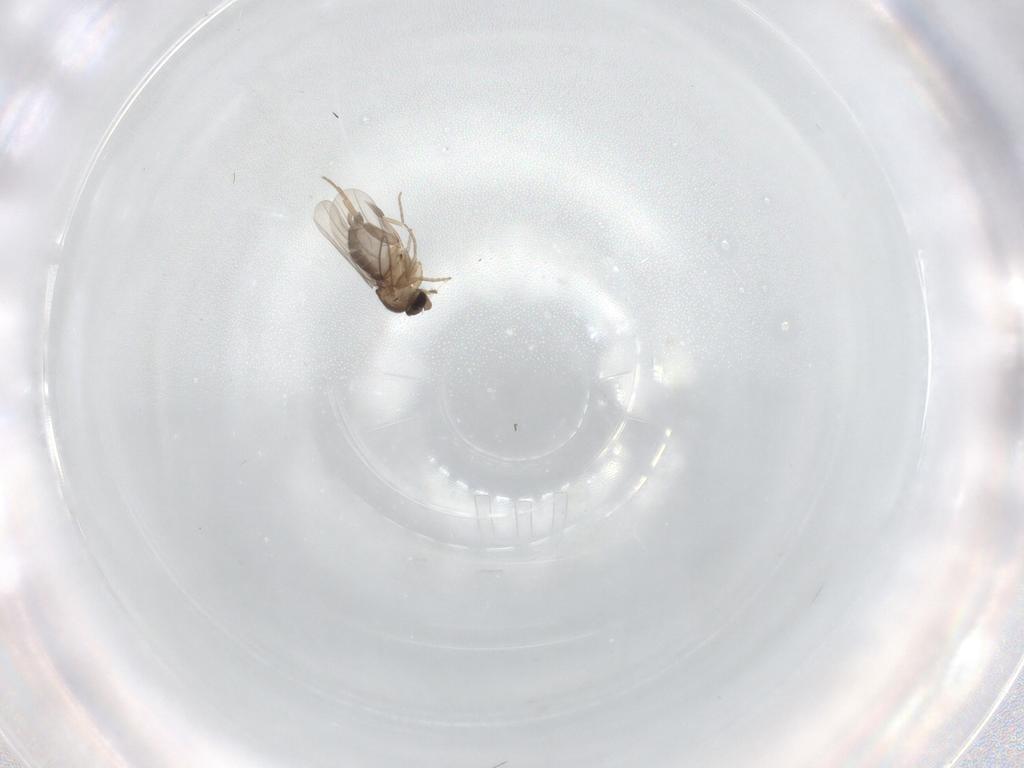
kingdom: Animalia
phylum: Arthropoda
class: Insecta
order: Diptera
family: Phoridae
